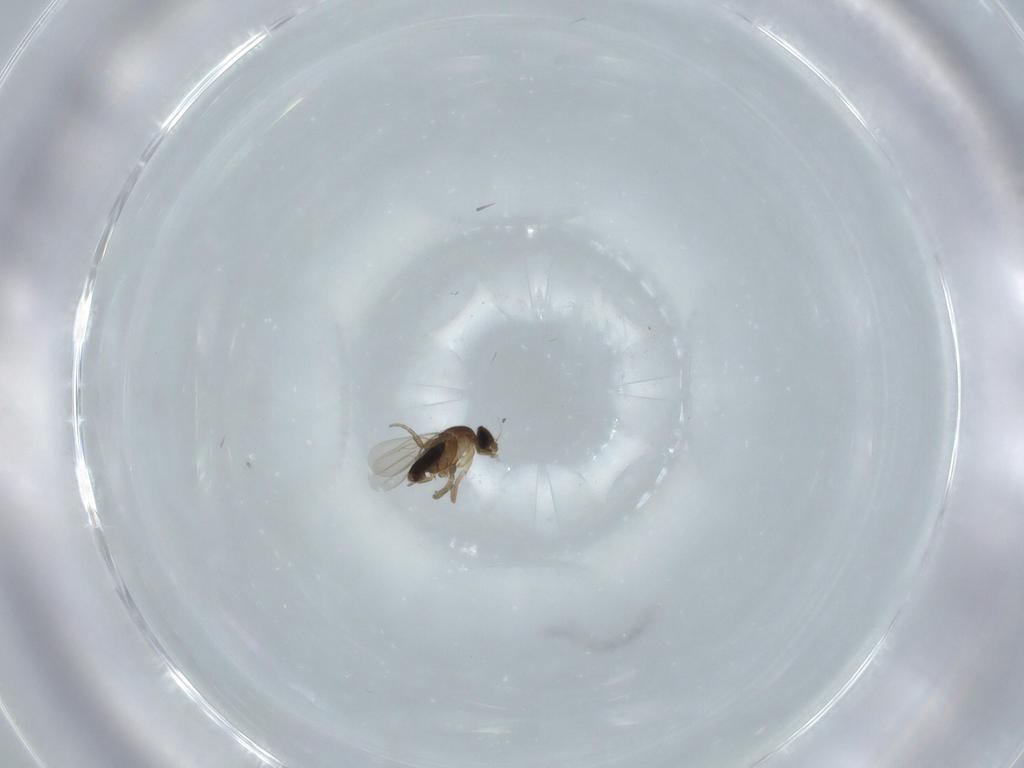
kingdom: Animalia
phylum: Arthropoda
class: Insecta
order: Diptera
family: Phoridae
